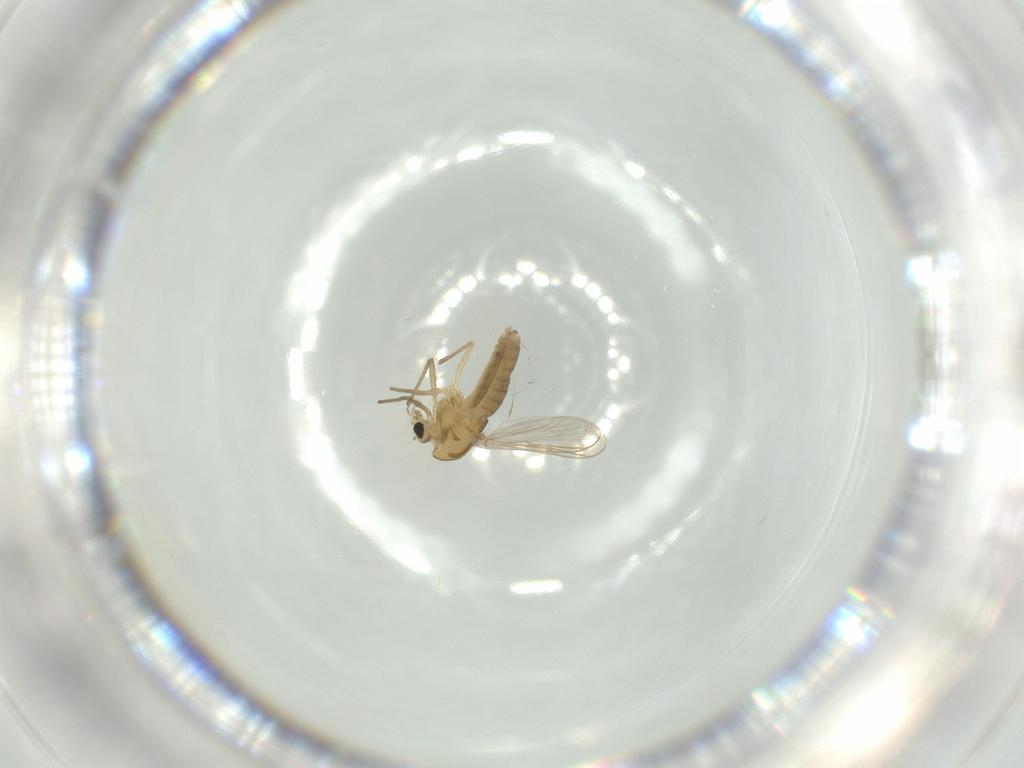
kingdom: Animalia
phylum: Arthropoda
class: Insecta
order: Diptera
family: Chironomidae
